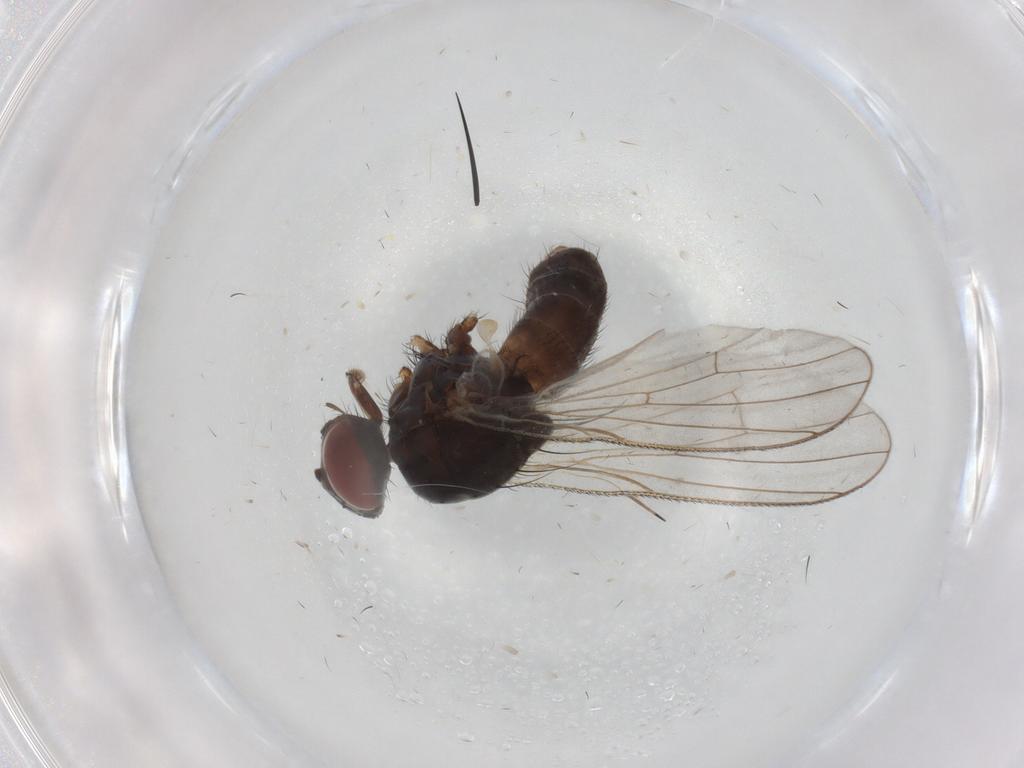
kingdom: Animalia
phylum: Arthropoda
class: Insecta
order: Diptera
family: Muscidae
